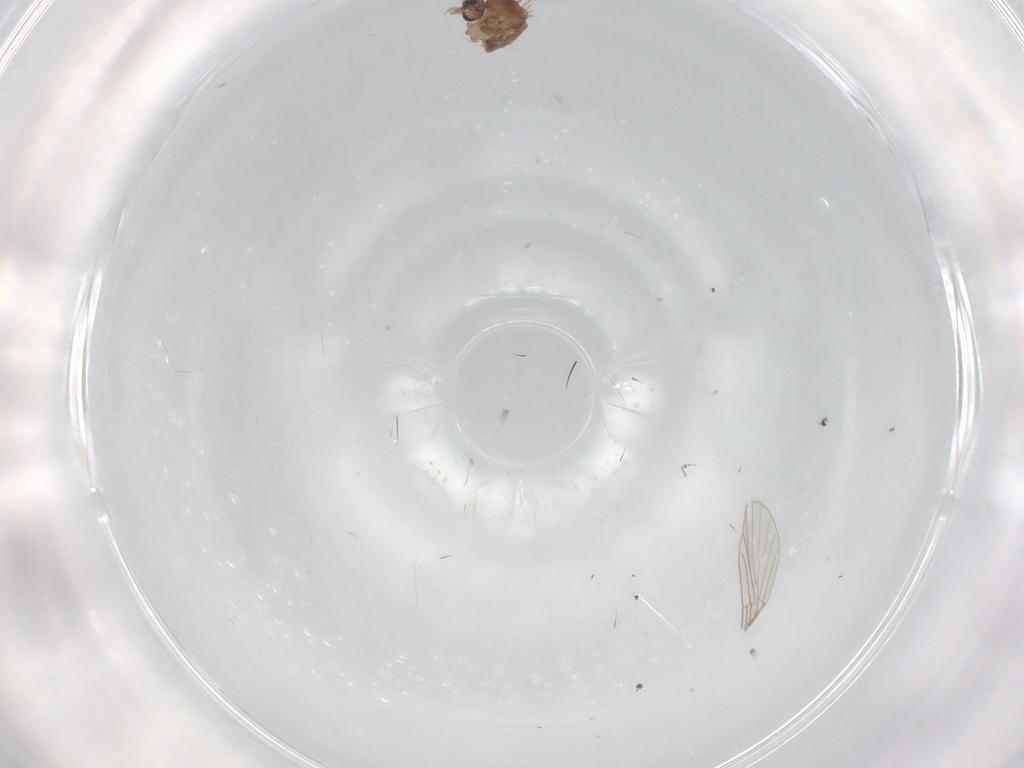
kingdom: Animalia
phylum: Arthropoda
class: Insecta
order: Diptera
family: Psychodidae
